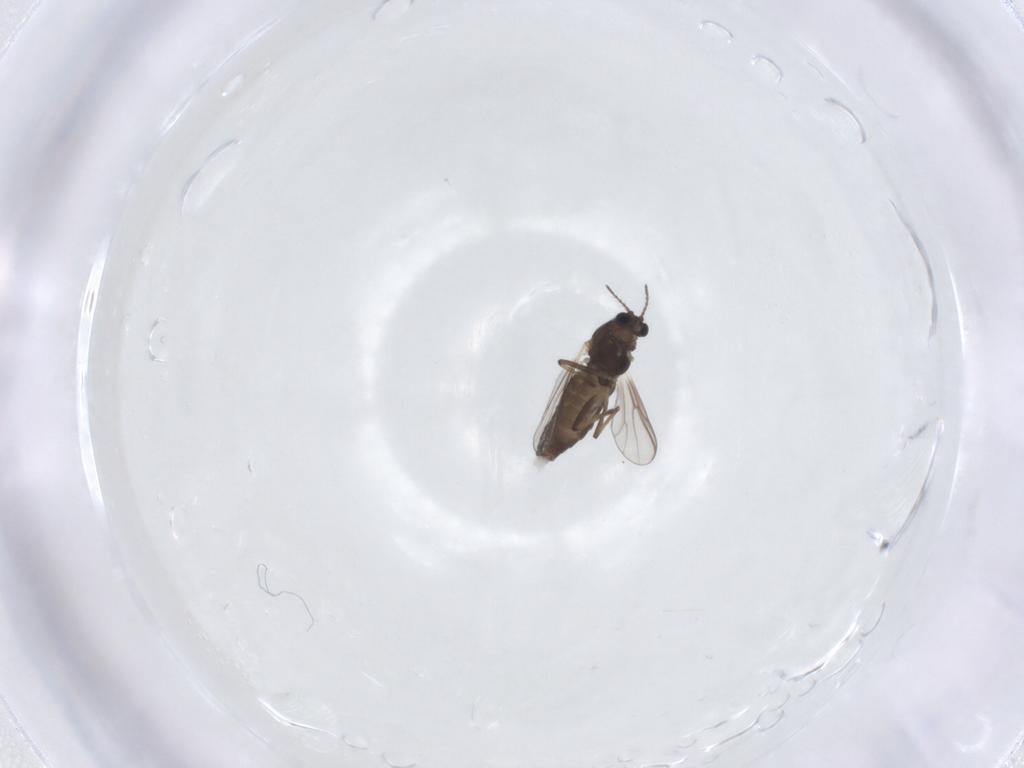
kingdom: Animalia
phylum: Arthropoda
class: Insecta
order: Diptera
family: Chironomidae
